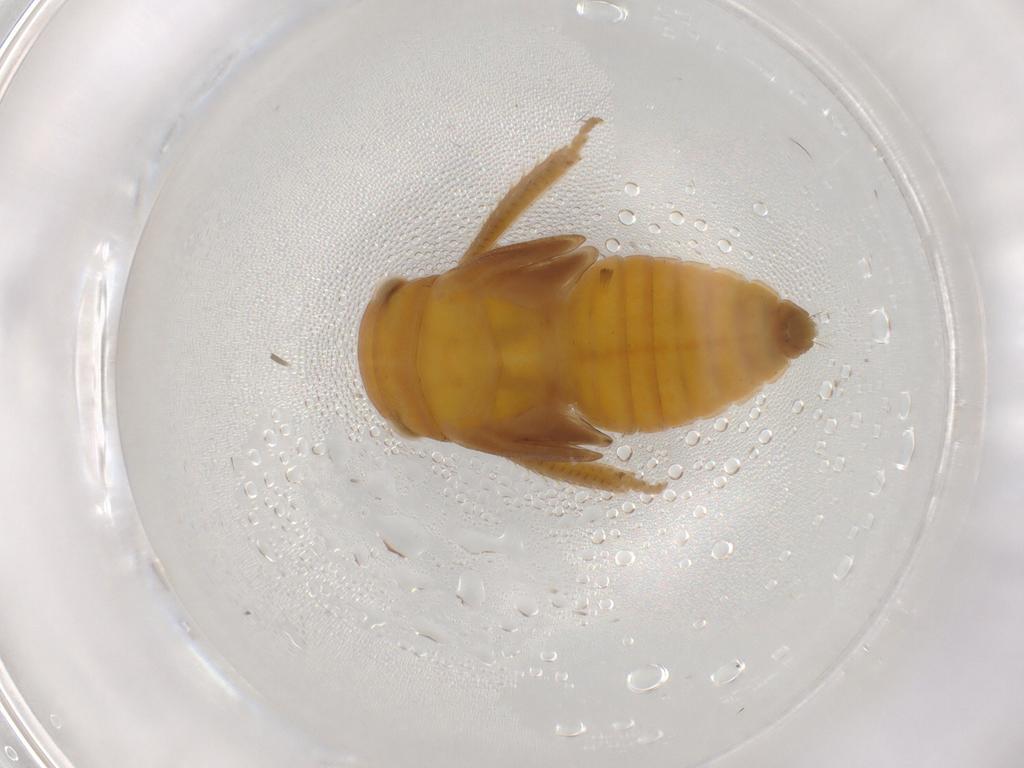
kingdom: Animalia
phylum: Arthropoda
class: Insecta
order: Hemiptera
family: Cicadellidae
